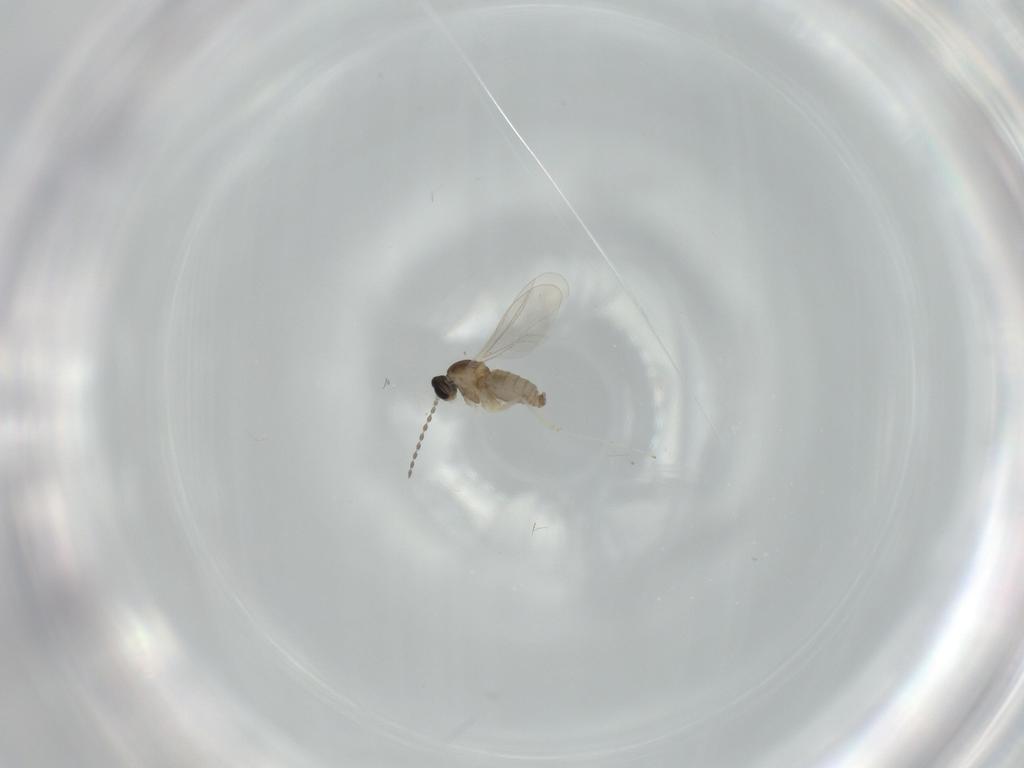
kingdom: Animalia
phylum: Arthropoda
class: Insecta
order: Diptera
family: Cecidomyiidae
